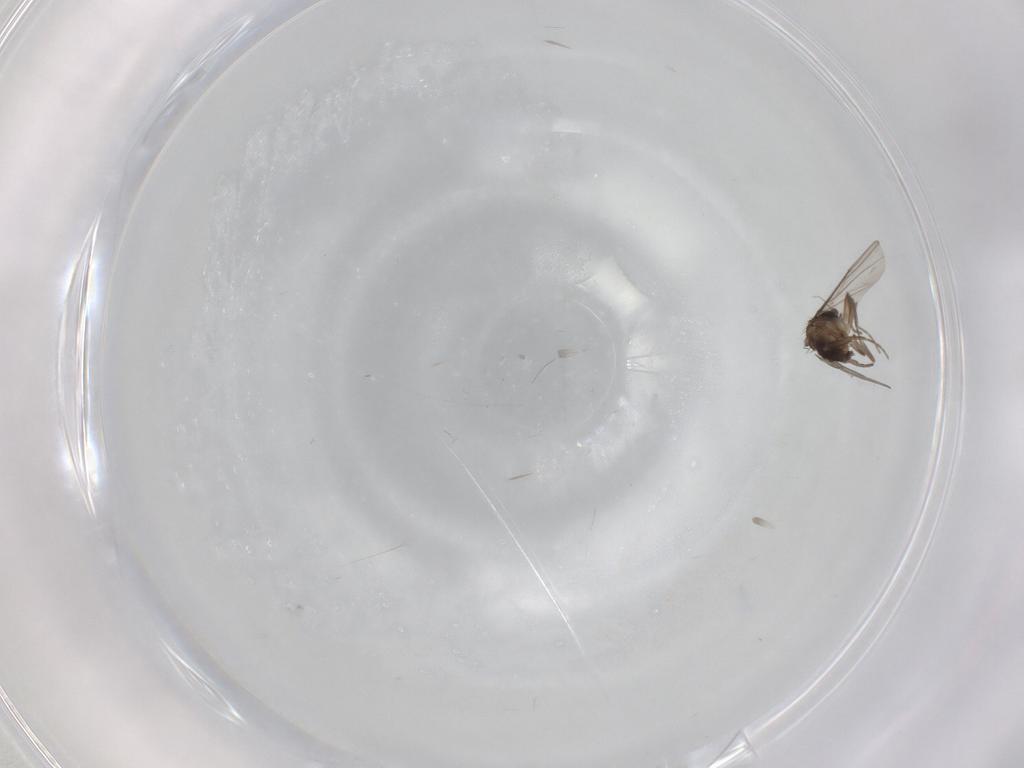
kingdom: Animalia
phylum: Arthropoda
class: Insecta
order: Diptera
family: Phoridae
